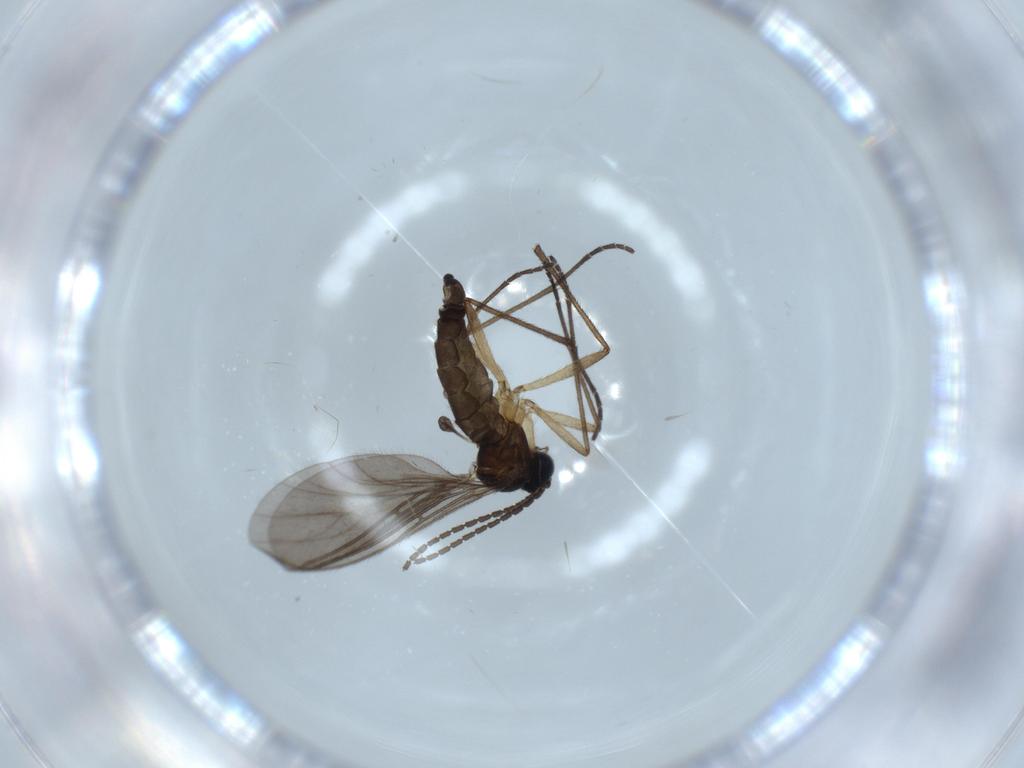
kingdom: Animalia
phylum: Arthropoda
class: Insecta
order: Diptera
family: Sciaridae
